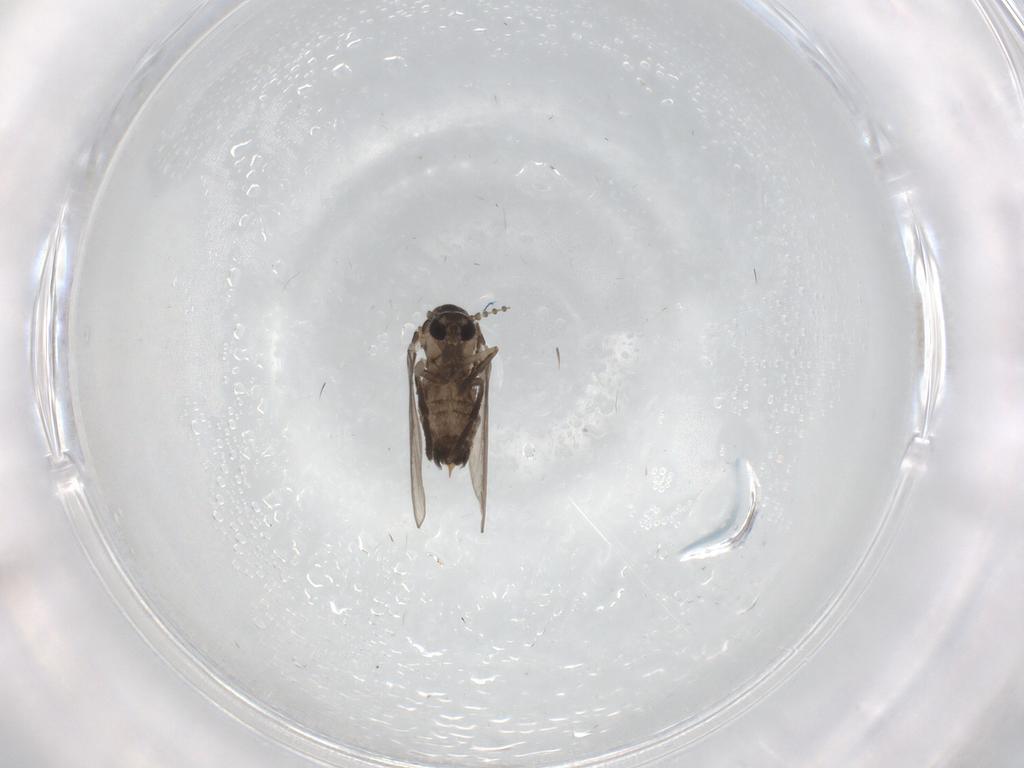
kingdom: Animalia
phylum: Arthropoda
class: Insecta
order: Diptera
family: Psychodidae
